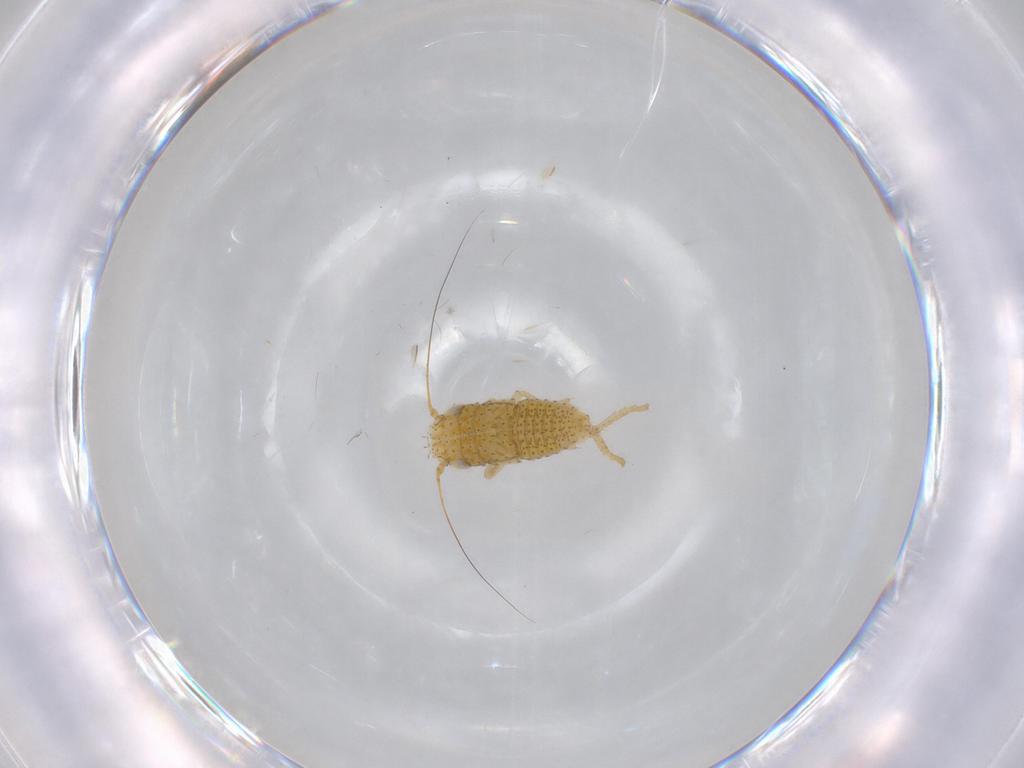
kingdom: Animalia
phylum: Arthropoda
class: Insecta
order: Hemiptera
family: Cicadellidae
